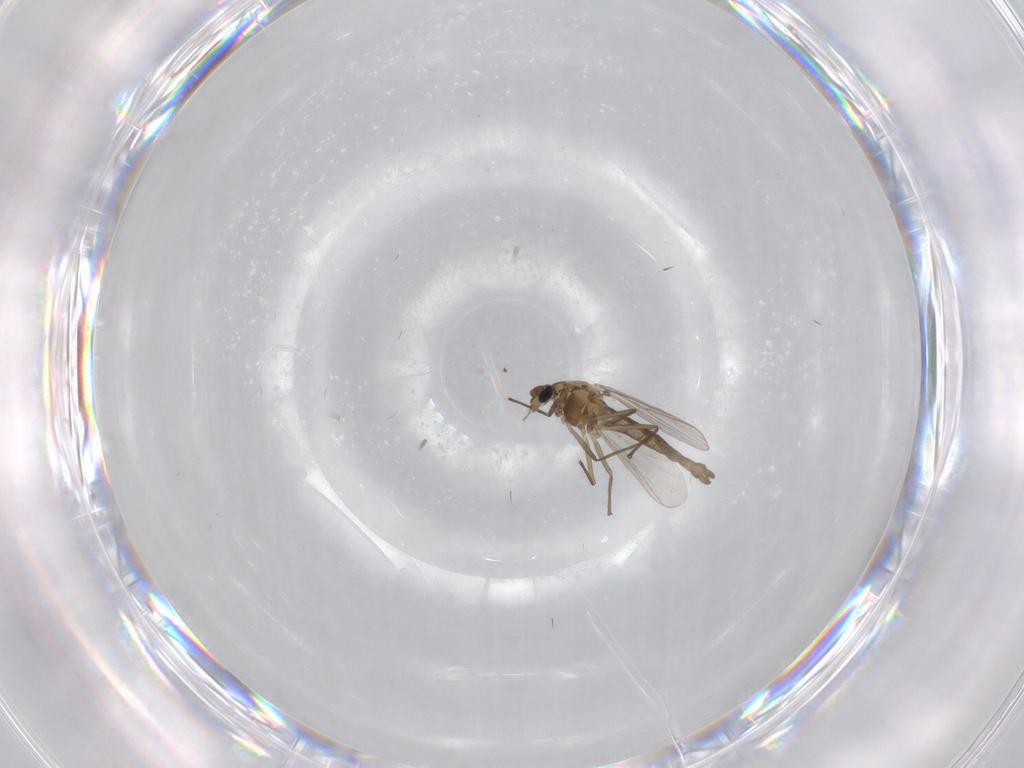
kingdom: Animalia
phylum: Arthropoda
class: Insecta
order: Diptera
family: Chironomidae
